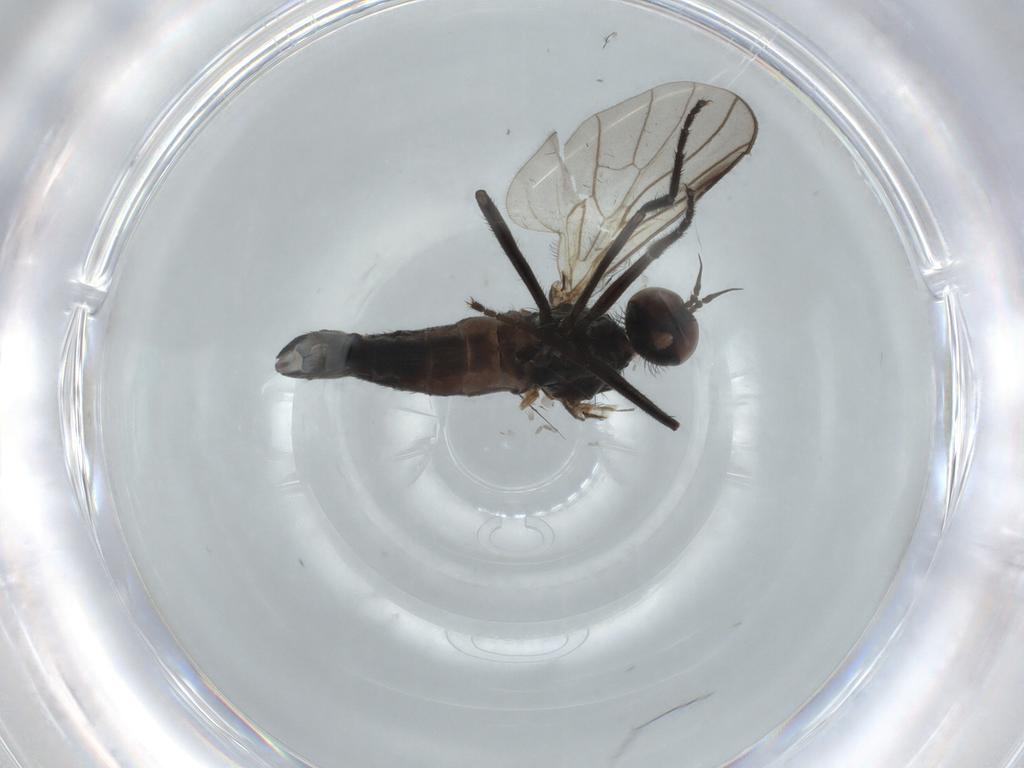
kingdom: Animalia
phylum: Arthropoda
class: Insecta
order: Diptera
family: Empididae
